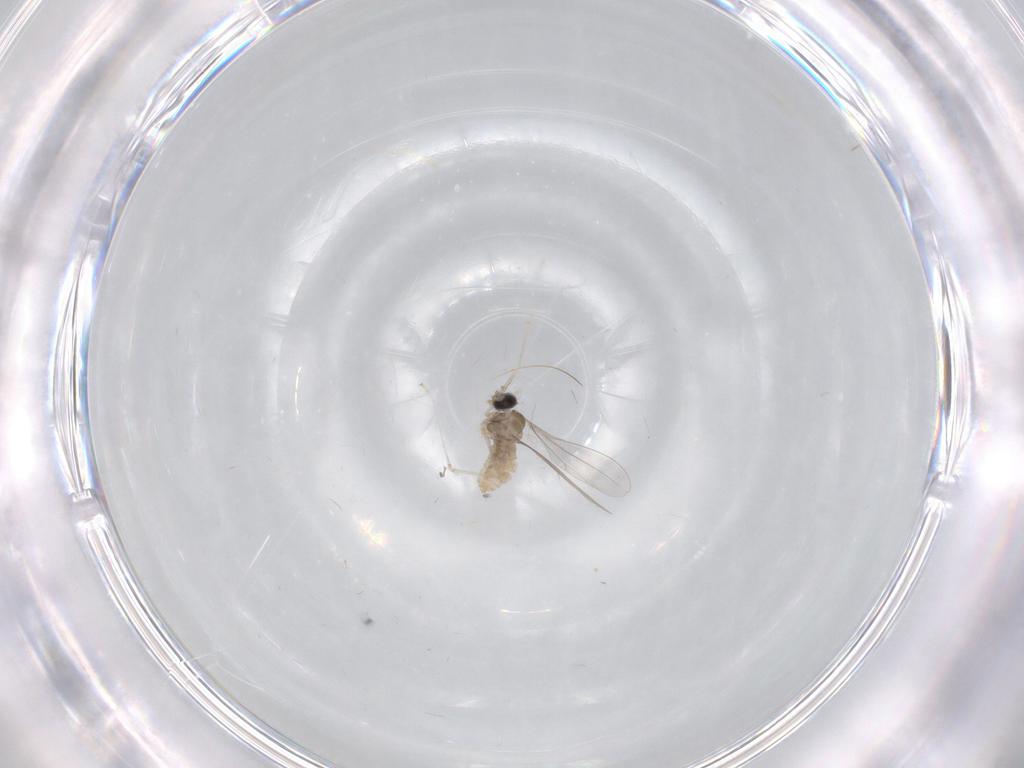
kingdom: Animalia
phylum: Arthropoda
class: Insecta
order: Diptera
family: Cecidomyiidae
